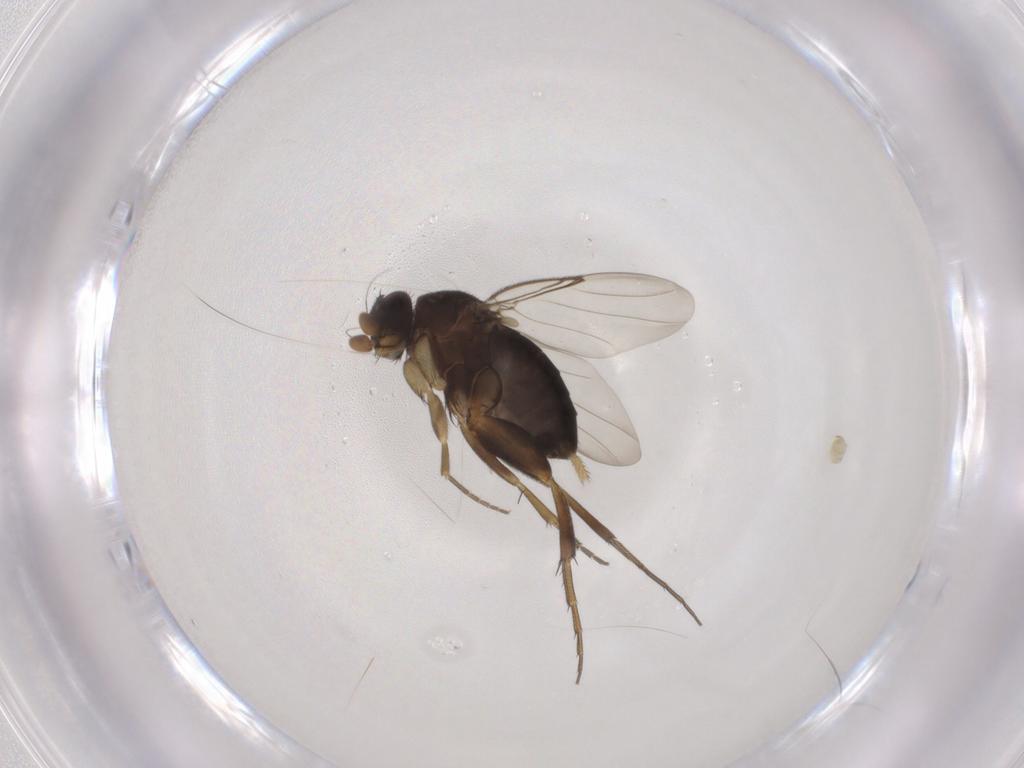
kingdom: Animalia
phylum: Arthropoda
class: Insecta
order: Diptera
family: Phoridae
